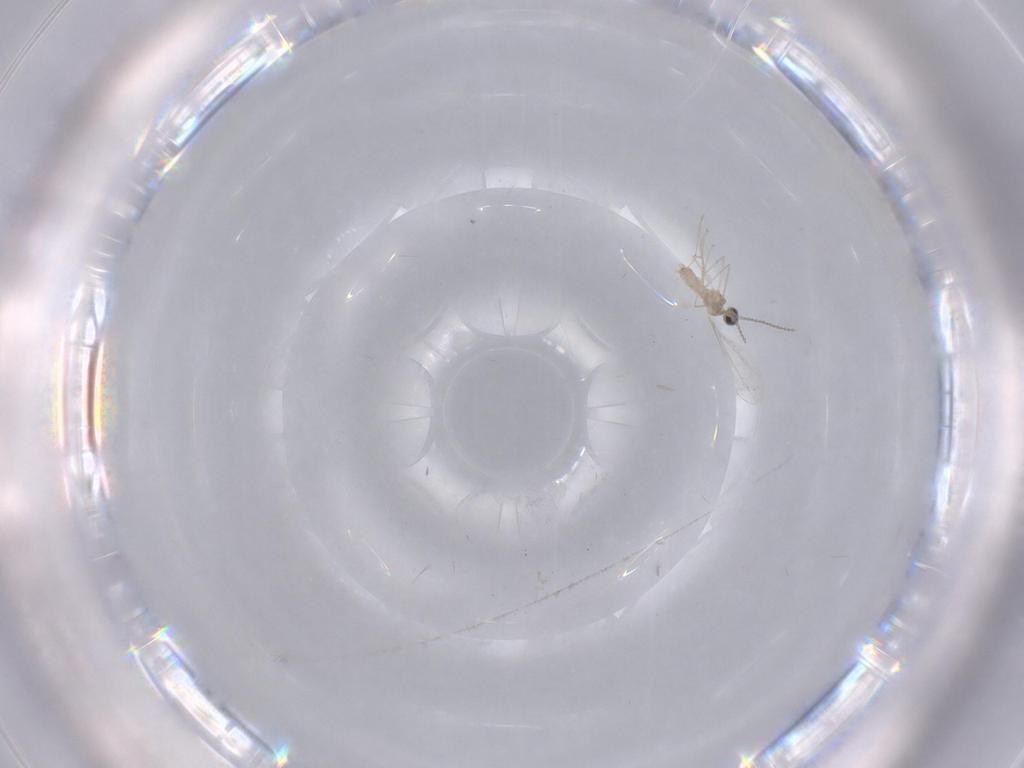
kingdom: Animalia
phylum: Arthropoda
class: Insecta
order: Diptera
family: Cecidomyiidae
